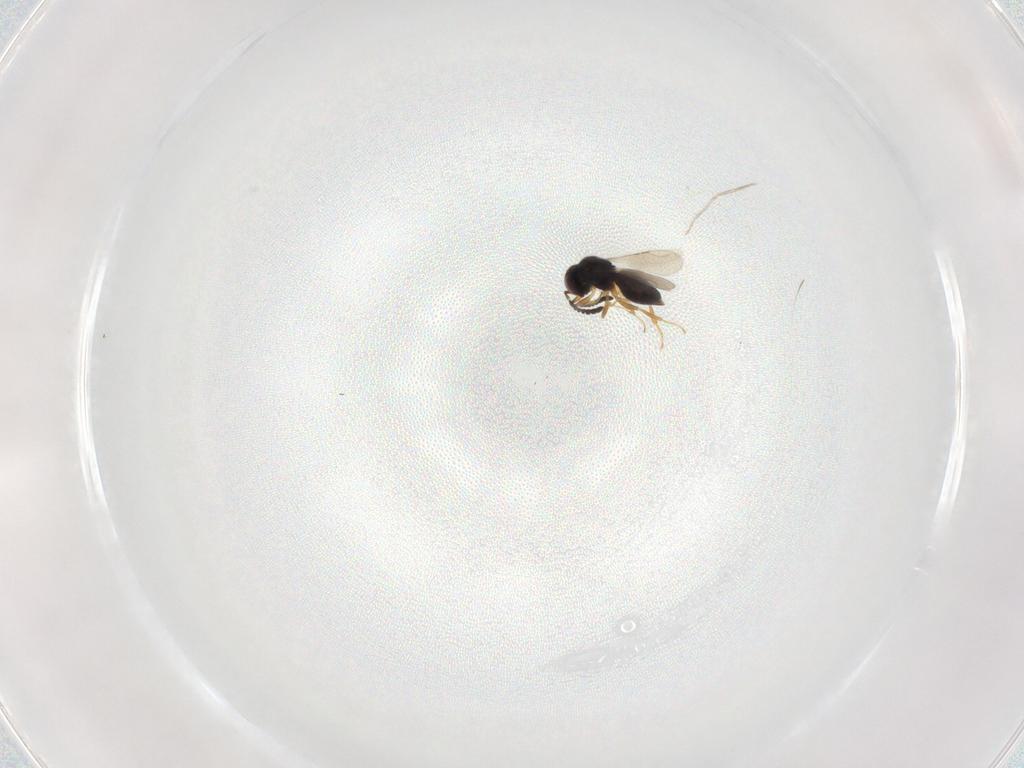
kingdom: Animalia
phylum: Arthropoda
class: Insecta
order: Hymenoptera
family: Ceraphronidae
